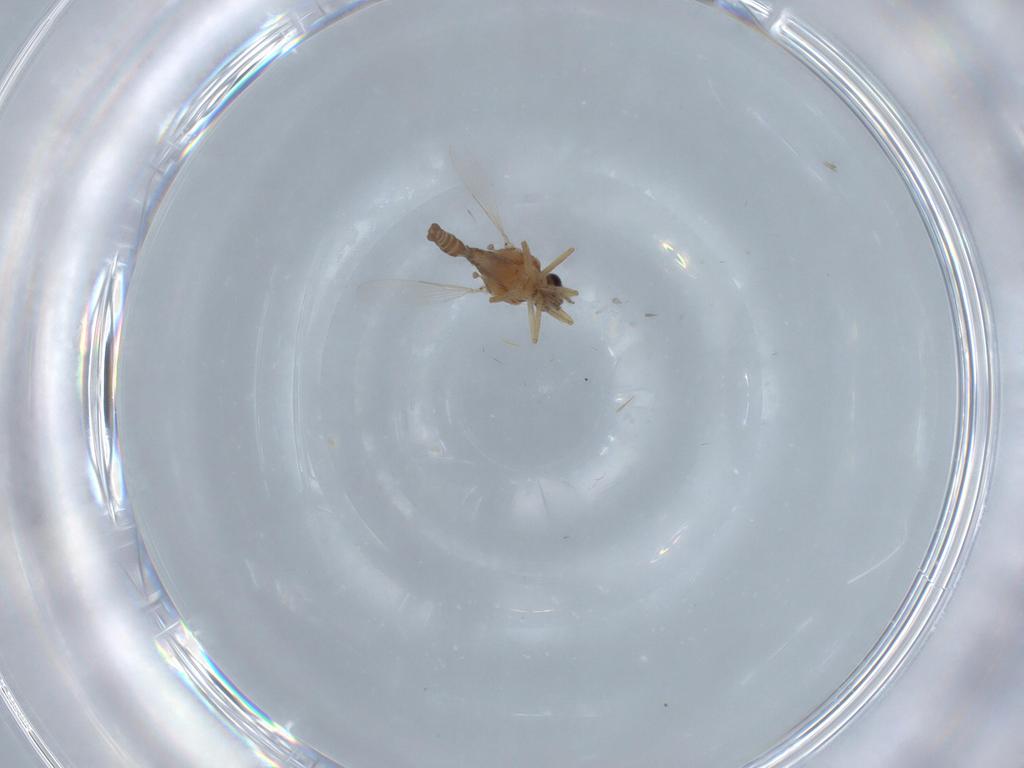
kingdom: Animalia
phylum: Arthropoda
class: Insecta
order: Diptera
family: Ceratopogonidae
